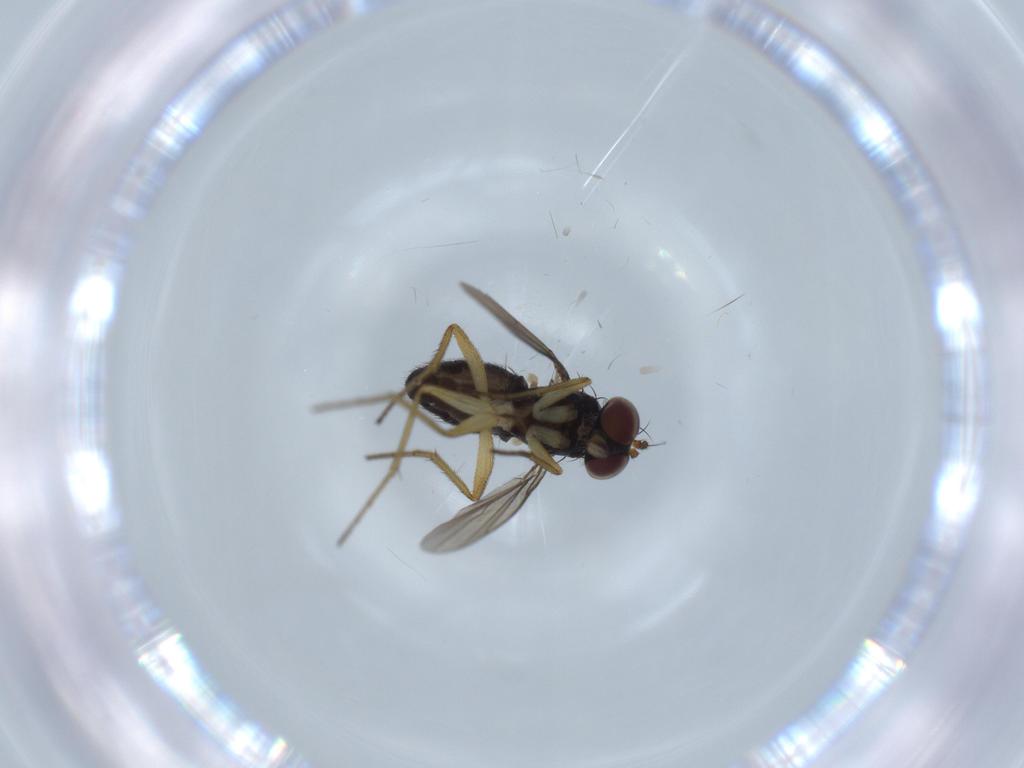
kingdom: Animalia
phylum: Arthropoda
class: Insecta
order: Diptera
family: Dolichopodidae
